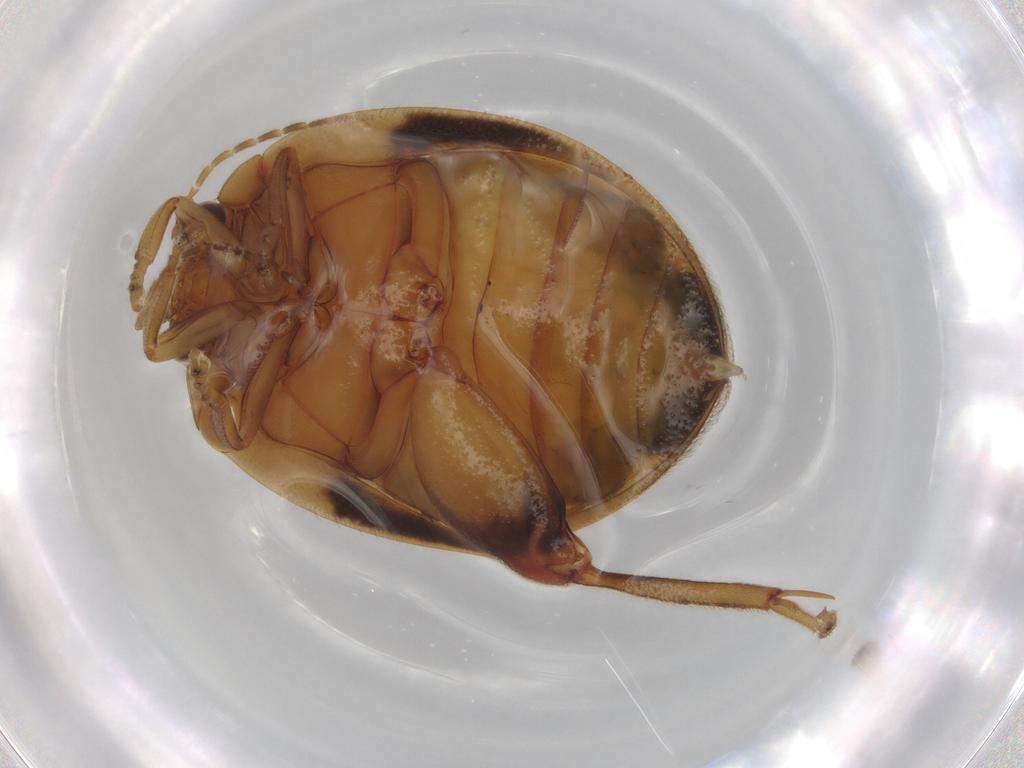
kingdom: Animalia
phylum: Arthropoda
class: Insecta
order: Coleoptera
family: Scirtidae
